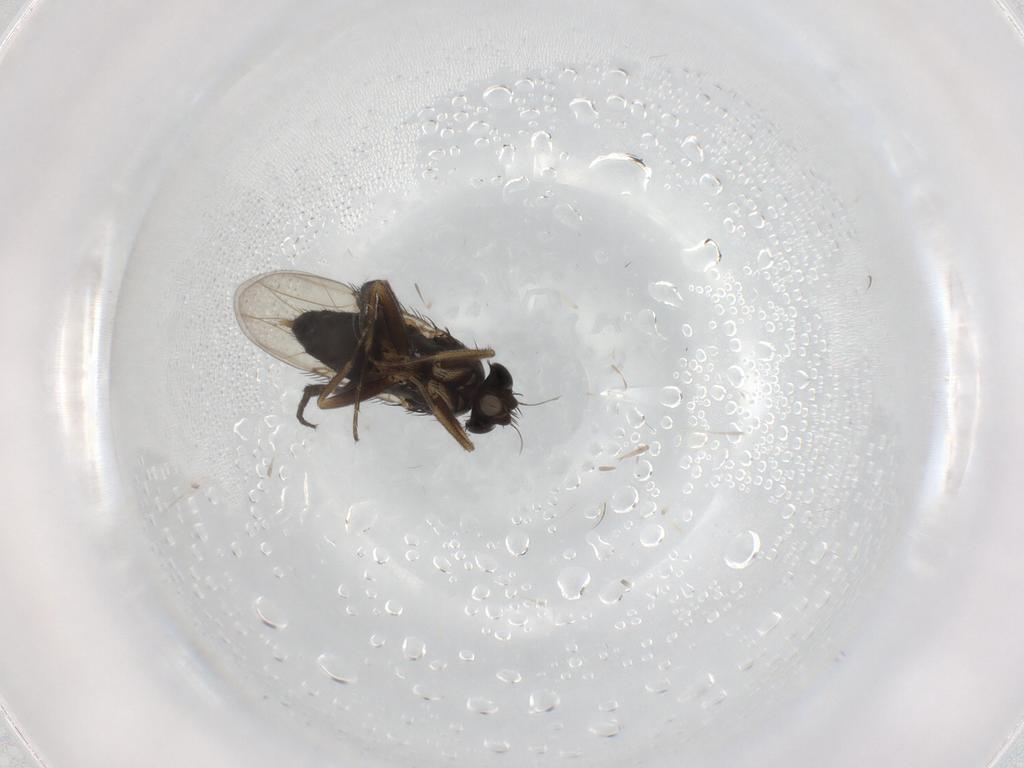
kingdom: Animalia
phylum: Arthropoda
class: Insecta
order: Diptera
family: Phoridae
